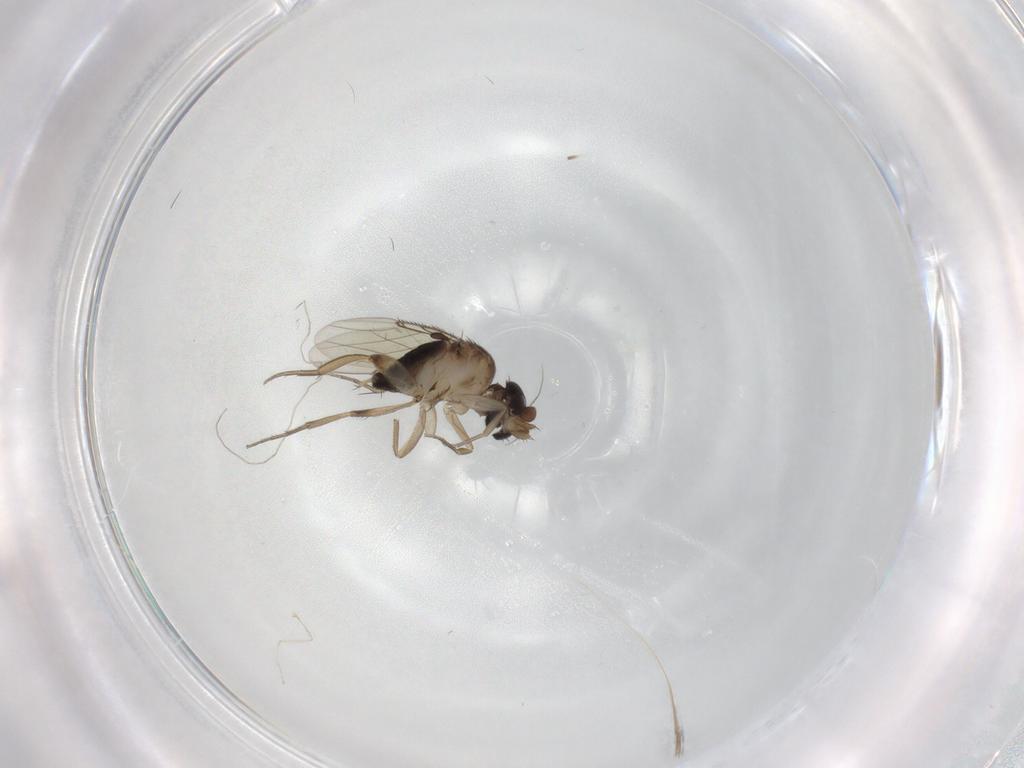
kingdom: Animalia
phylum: Arthropoda
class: Insecta
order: Diptera
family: Phoridae
